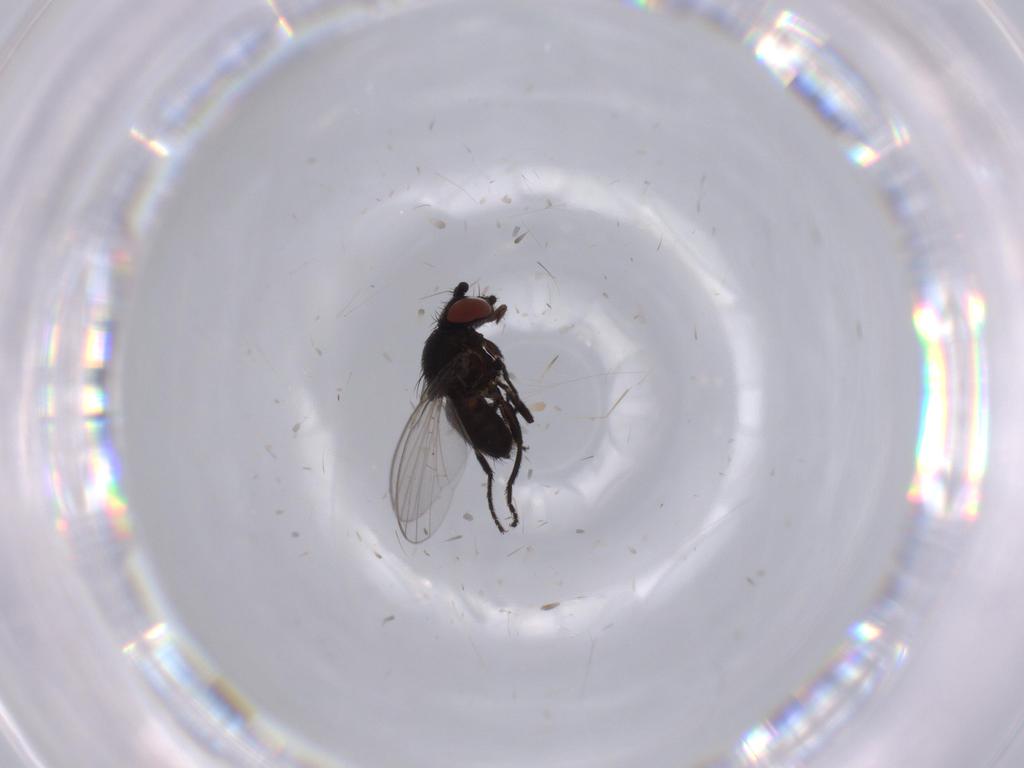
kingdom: Animalia
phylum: Arthropoda
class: Insecta
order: Diptera
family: Milichiidae
